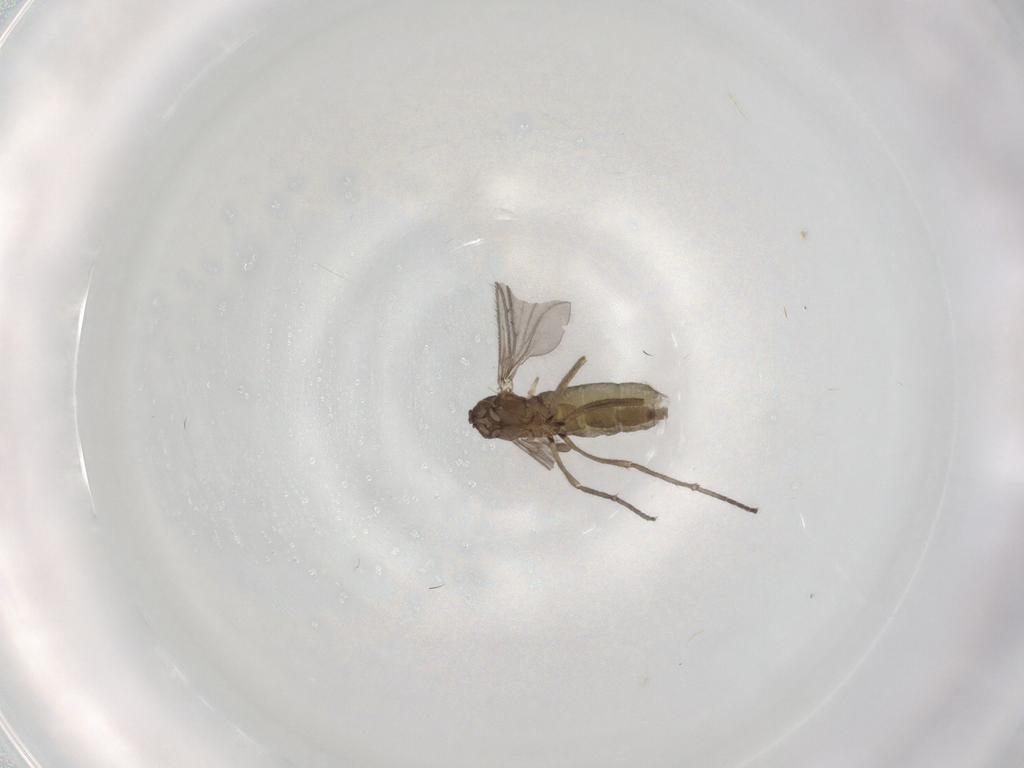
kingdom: Animalia
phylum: Arthropoda
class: Insecta
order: Diptera
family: Sciaridae
